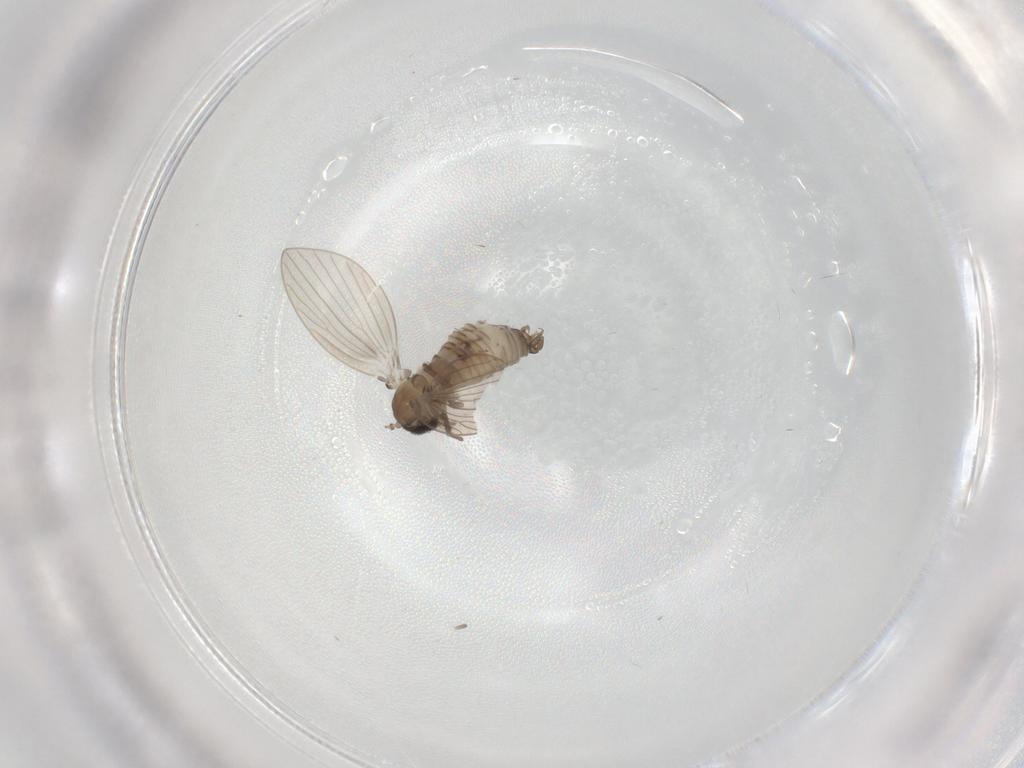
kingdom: Animalia
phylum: Arthropoda
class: Insecta
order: Diptera
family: Phoridae
